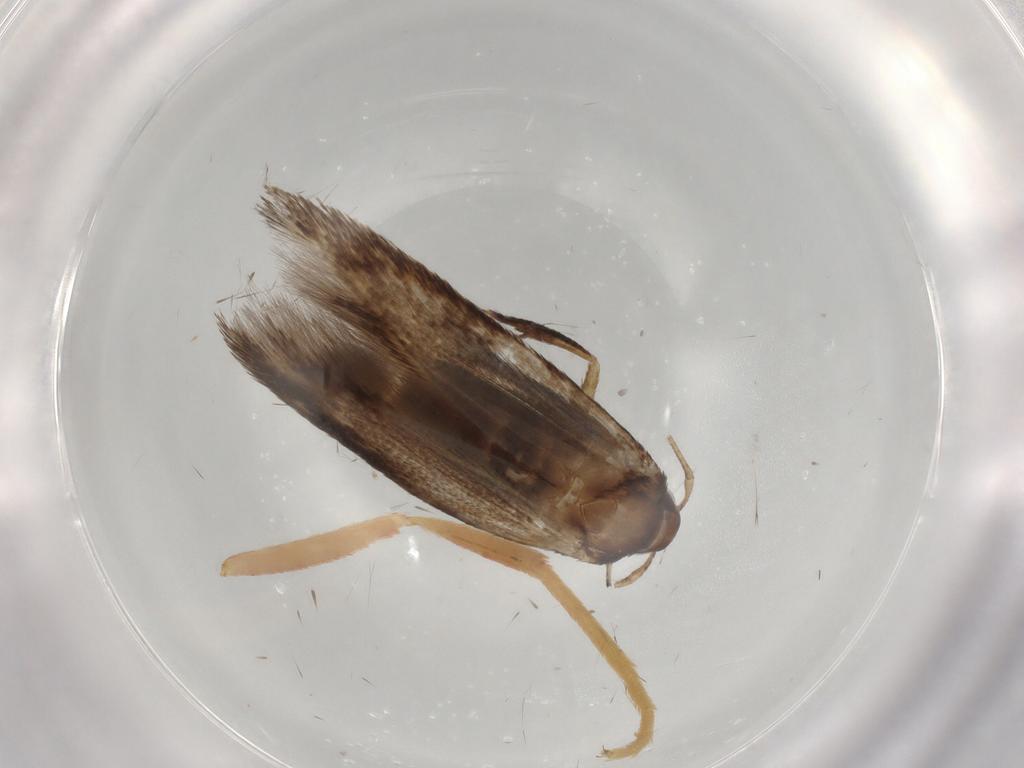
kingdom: Animalia
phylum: Arthropoda
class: Insecta
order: Lepidoptera
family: Cosmopterigidae
